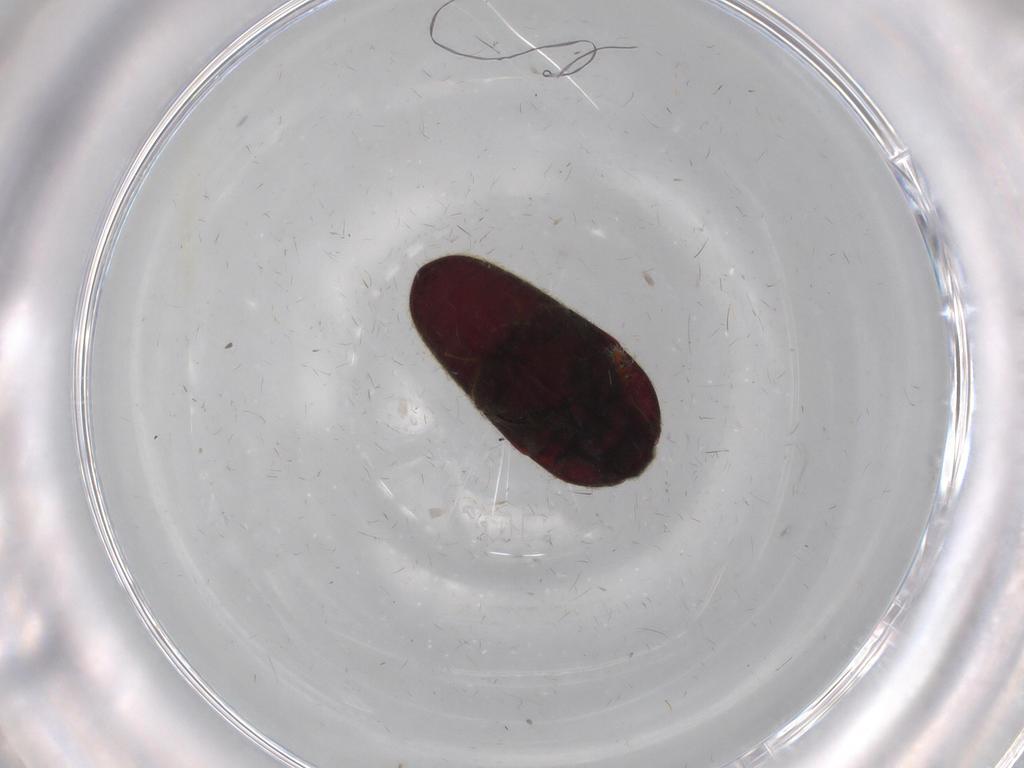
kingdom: Animalia
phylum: Arthropoda
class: Insecta
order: Coleoptera
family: Throscidae
